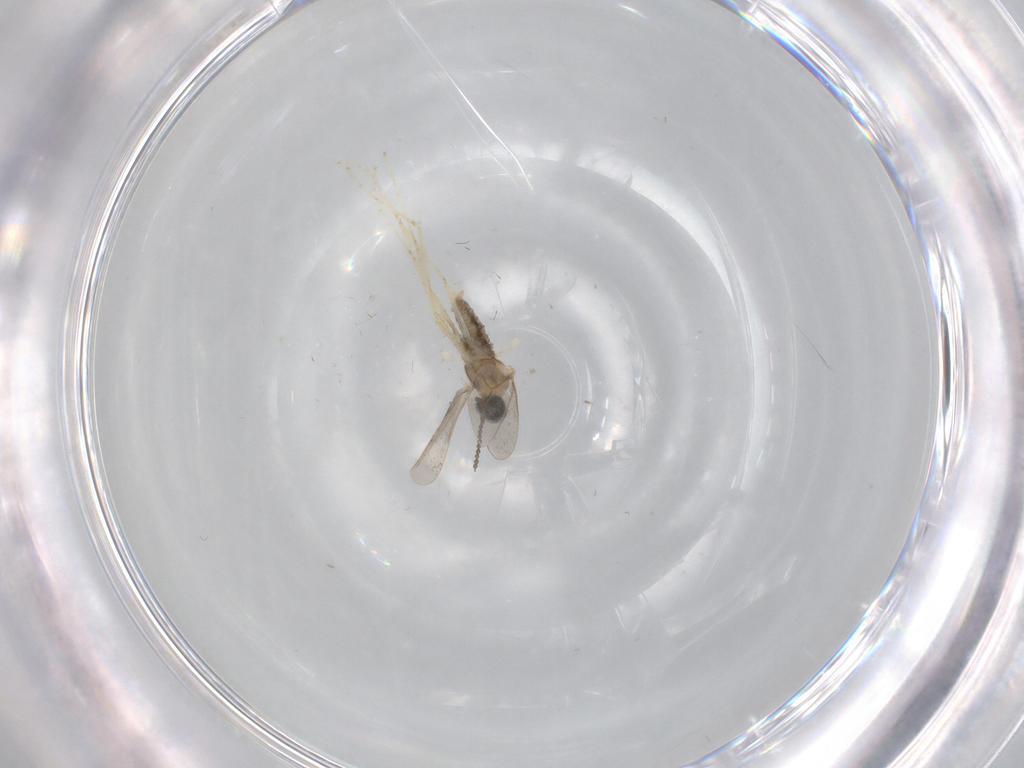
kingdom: Animalia
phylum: Arthropoda
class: Insecta
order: Diptera
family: Cecidomyiidae
